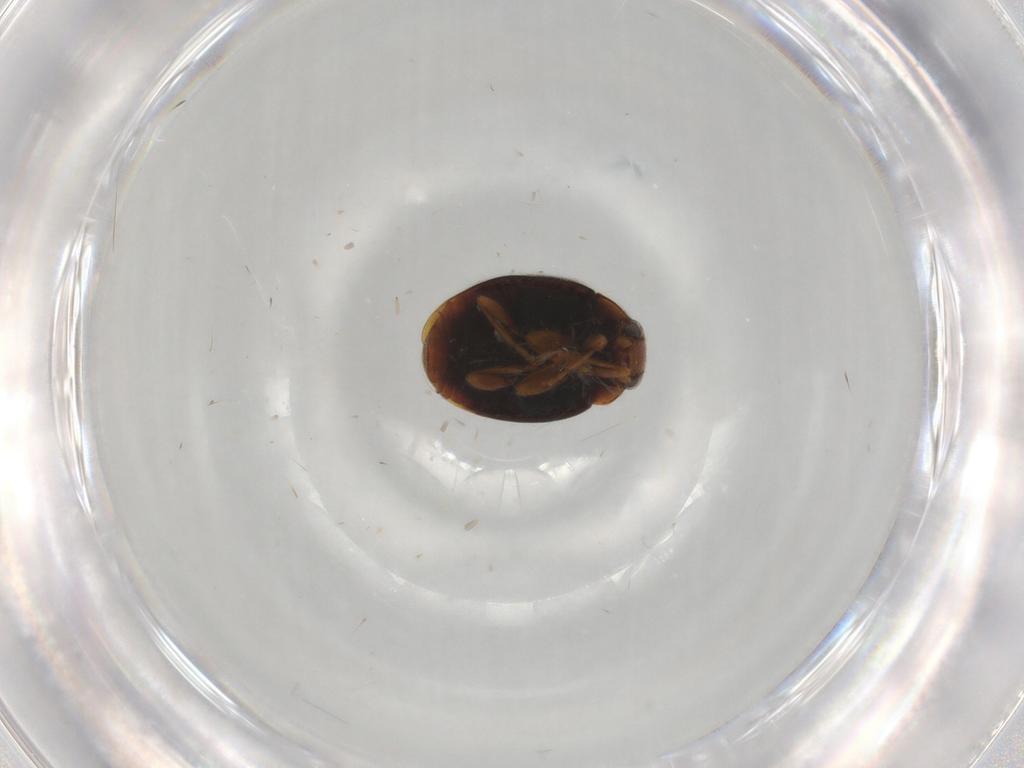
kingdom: Animalia
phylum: Arthropoda
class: Insecta
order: Coleoptera
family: Coccinellidae
